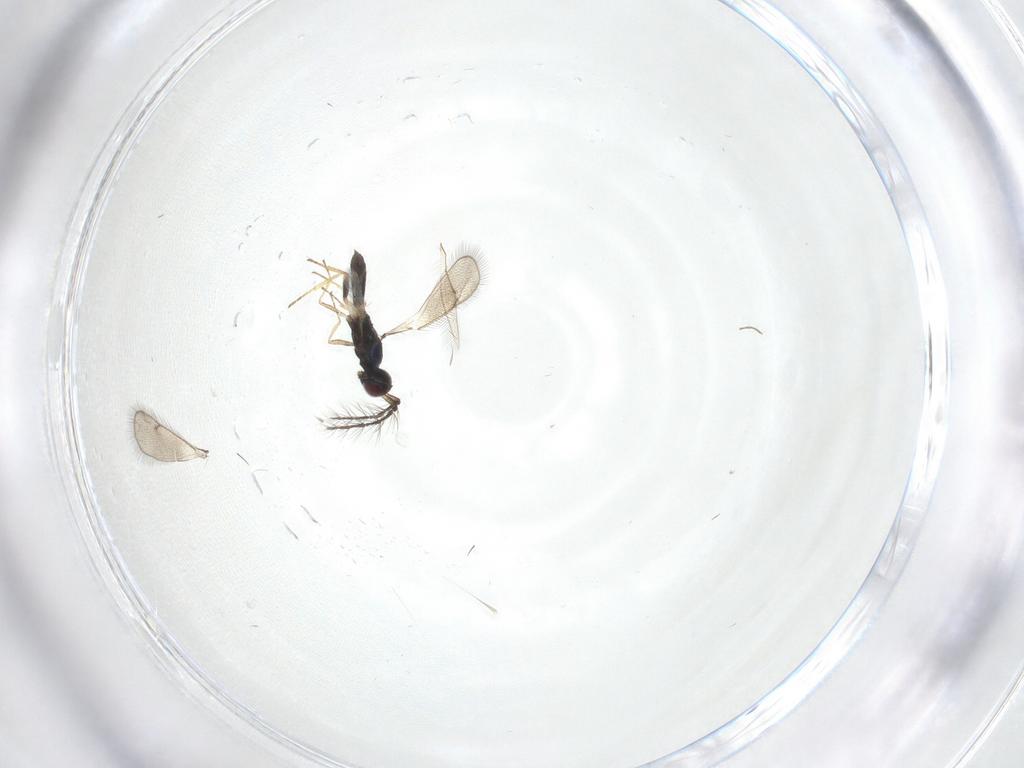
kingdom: Animalia
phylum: Arthropoda
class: Insecta
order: Hymenoptera
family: Eulophidae
